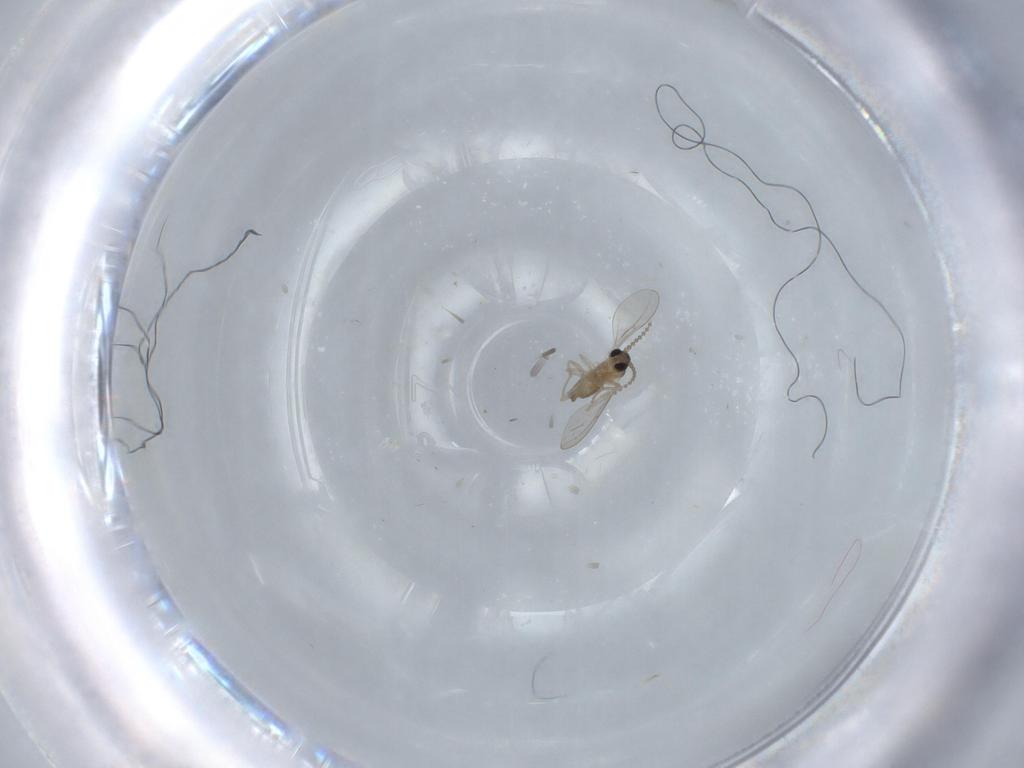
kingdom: Animalia
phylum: Arthropoda
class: Insecta
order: Diptera
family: Cecidomyiidae
